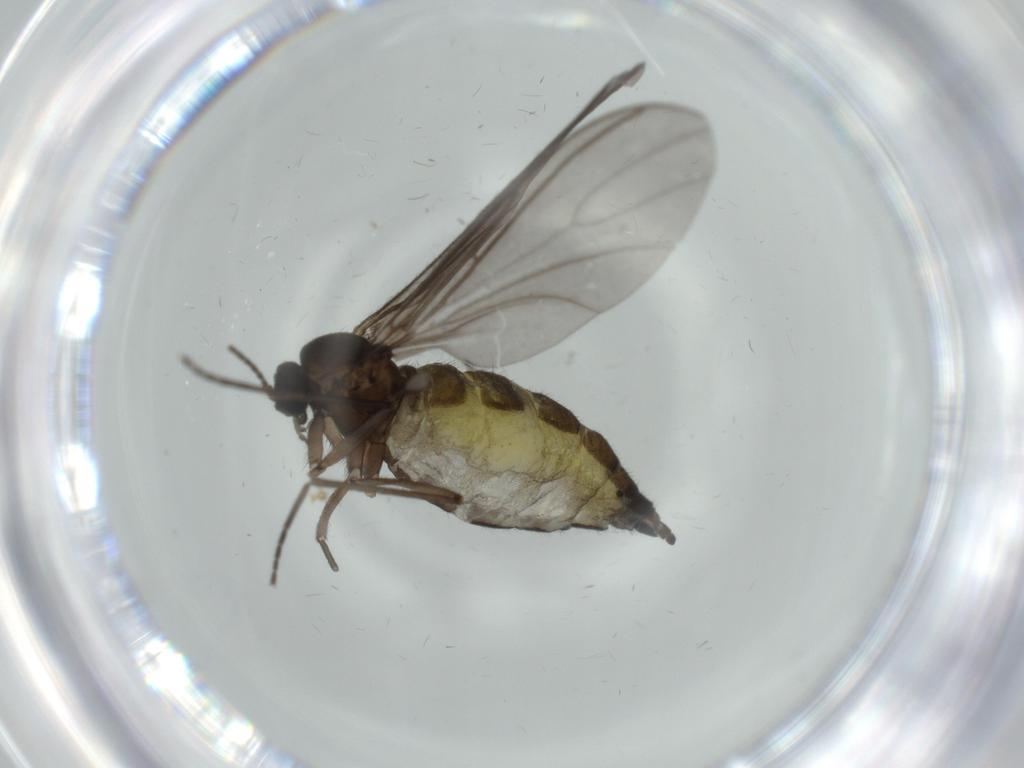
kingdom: Animalia
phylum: Arthropoda
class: Insecta
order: Diptera
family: Sciaridae
